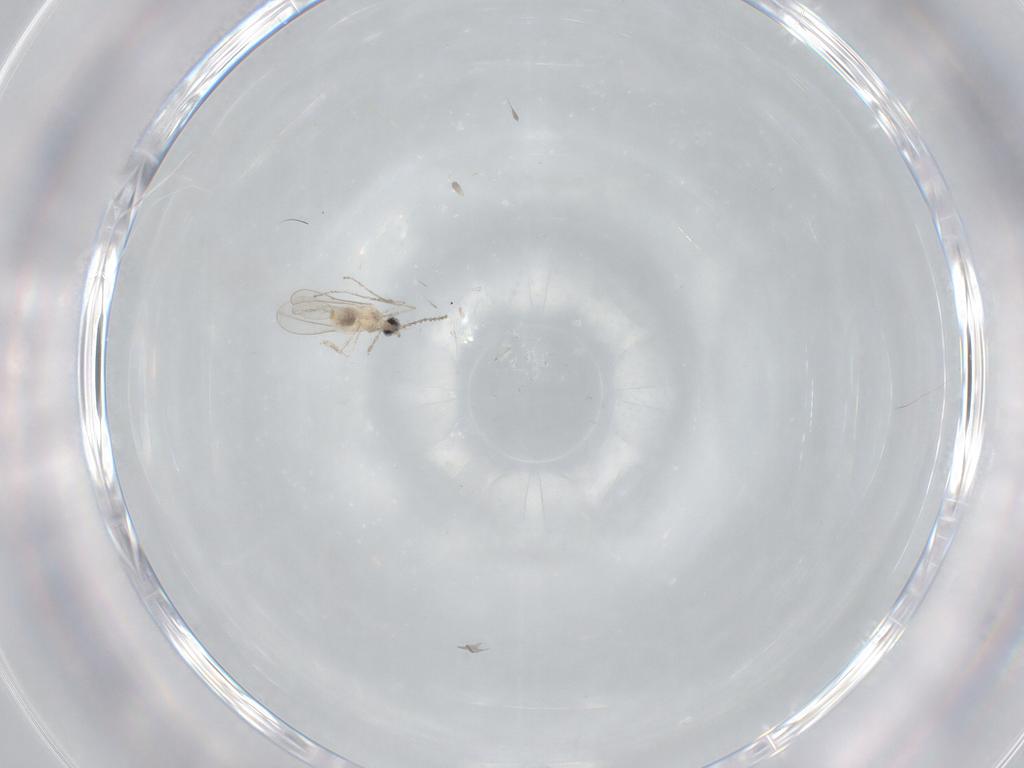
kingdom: Animalia
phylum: Arthropoda
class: Insecta
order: Diptera
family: Cecidomyiidae
